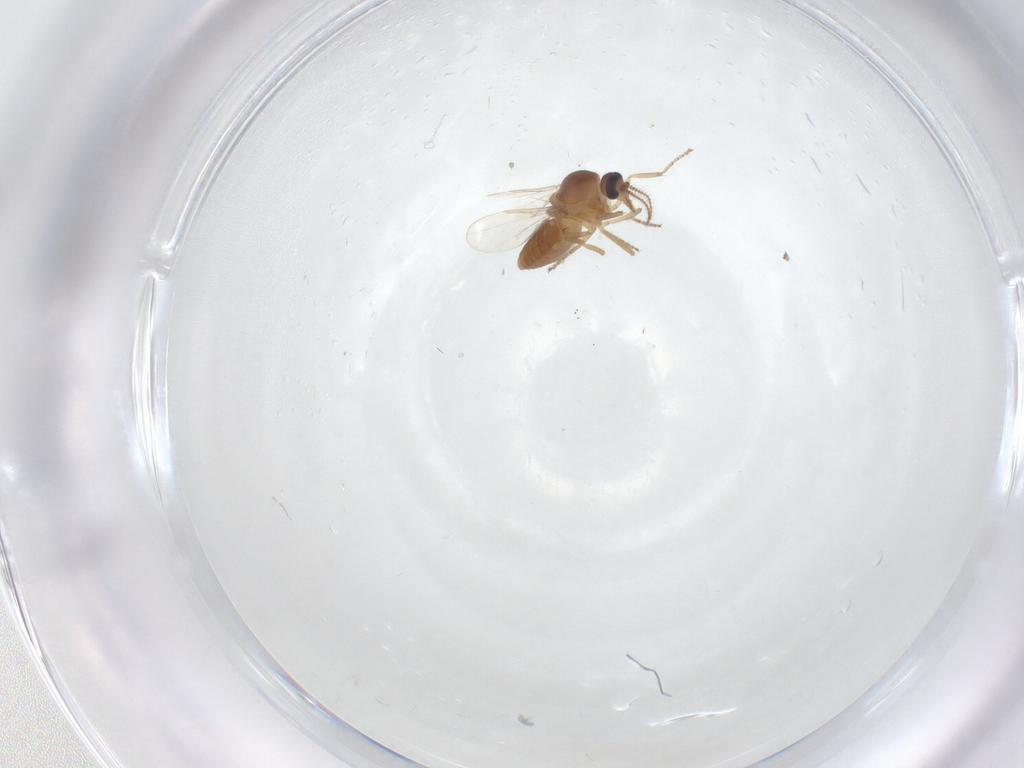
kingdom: Animalia
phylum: Arthropoda
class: Insecta
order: Diptera
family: Ceratopogonidae
